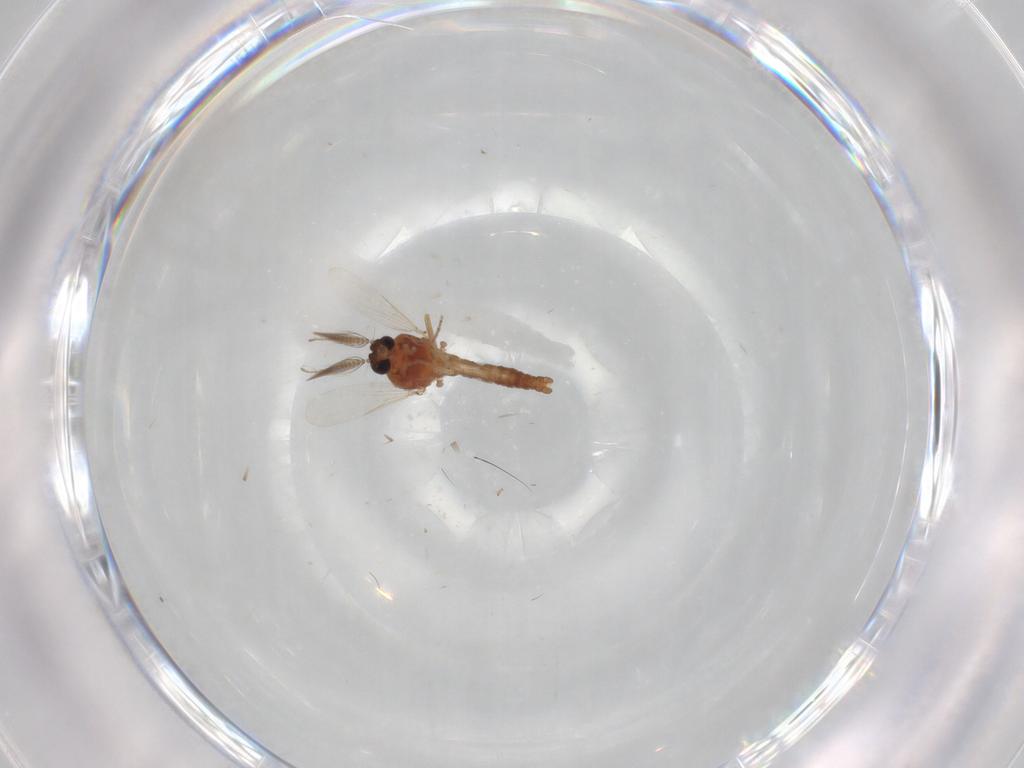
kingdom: Animalia
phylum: Arthropoda
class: Insecta
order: Diptera
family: Ceratopogonidae
